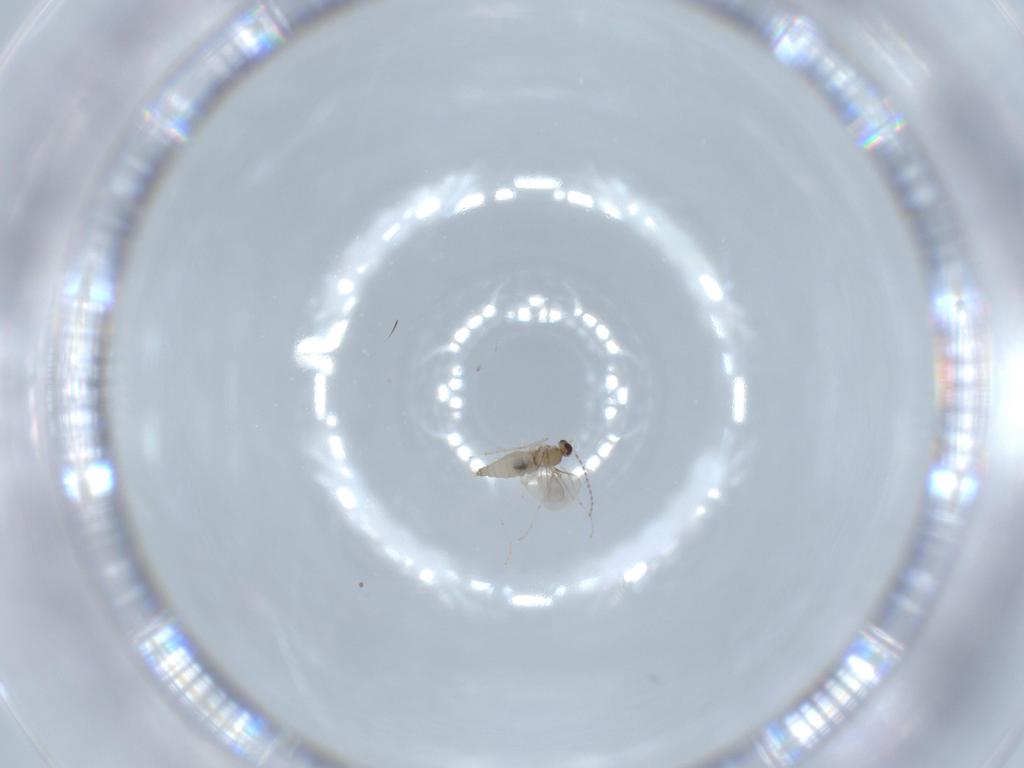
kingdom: Animalia
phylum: Arthropoda
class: Insecta
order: Diptera
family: Cecidomyiidae
